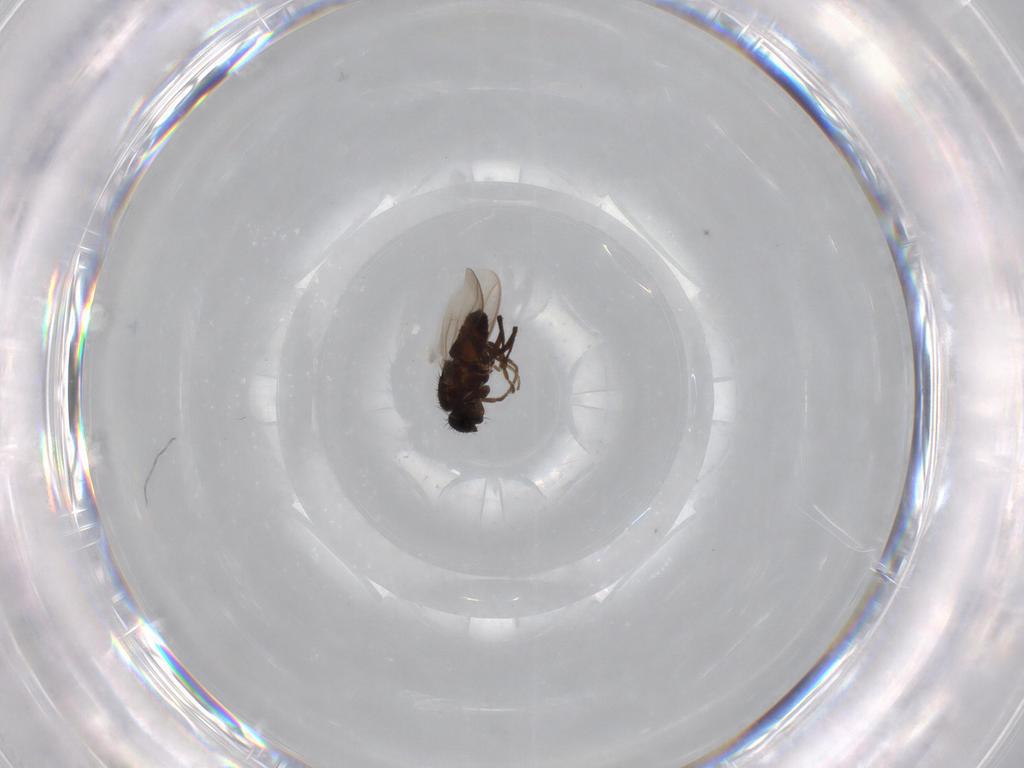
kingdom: Animalia
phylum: Arthropoda
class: Insecta
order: Diptera
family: Sphaeroceridae
